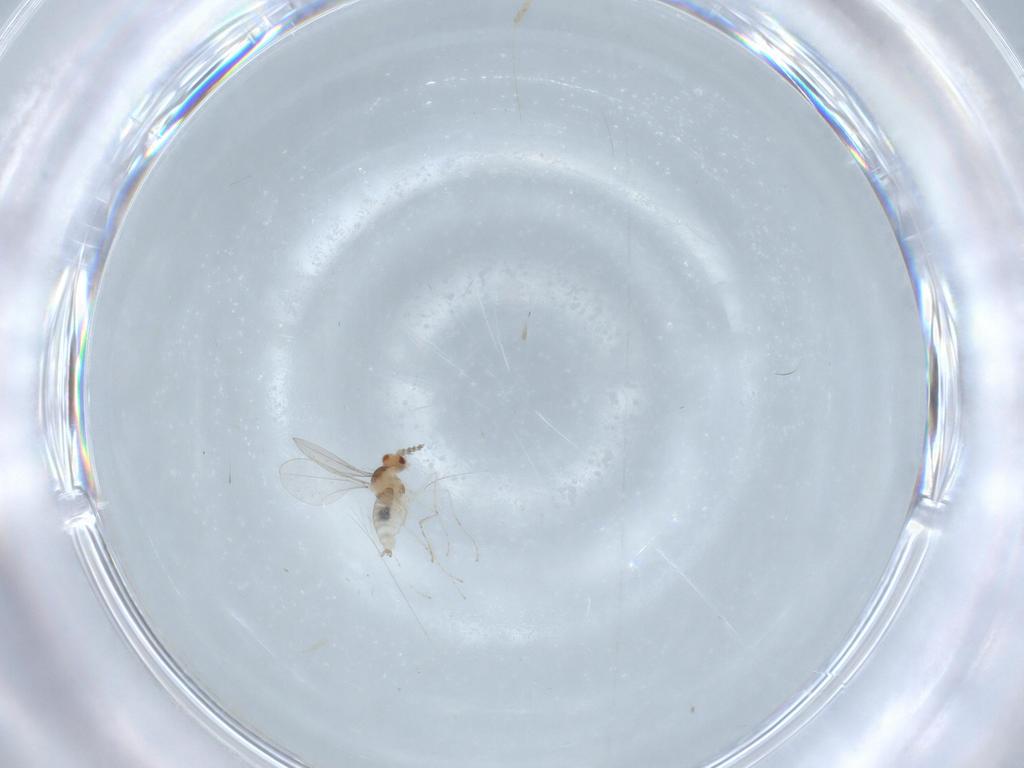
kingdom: Animalia
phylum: Arthropoda
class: Insecta
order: Diptera
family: Cecidomyiidae
